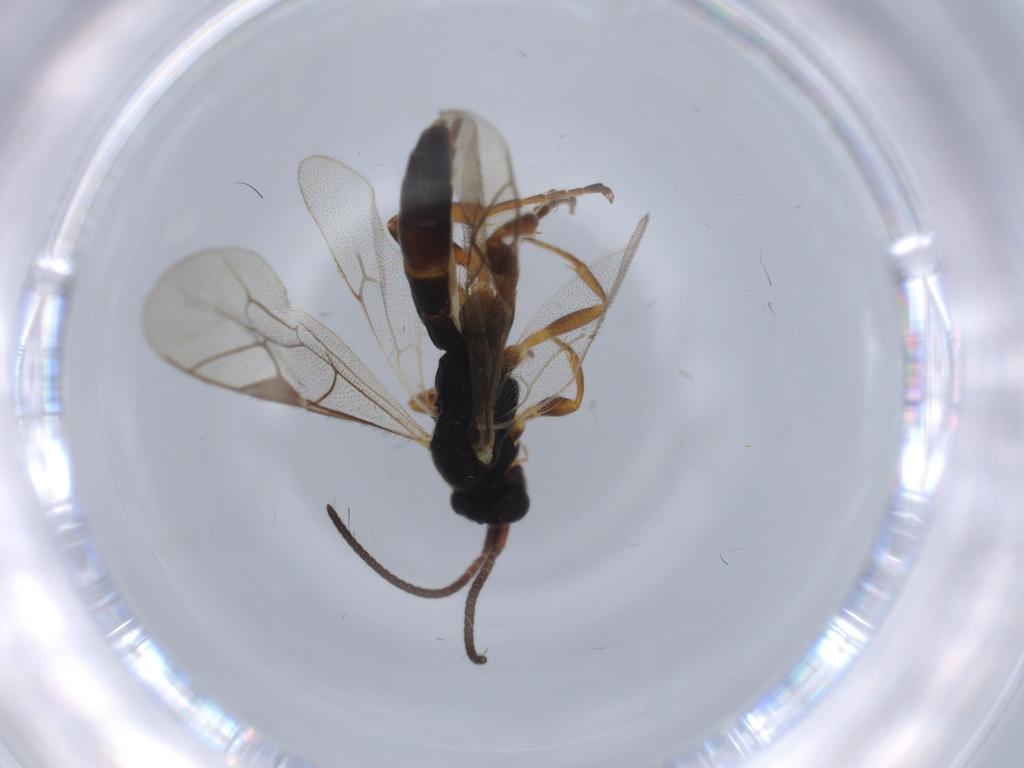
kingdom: Animalia
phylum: Arthropoda
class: Insecta
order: Hymenoptera
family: Ichneumonidae
